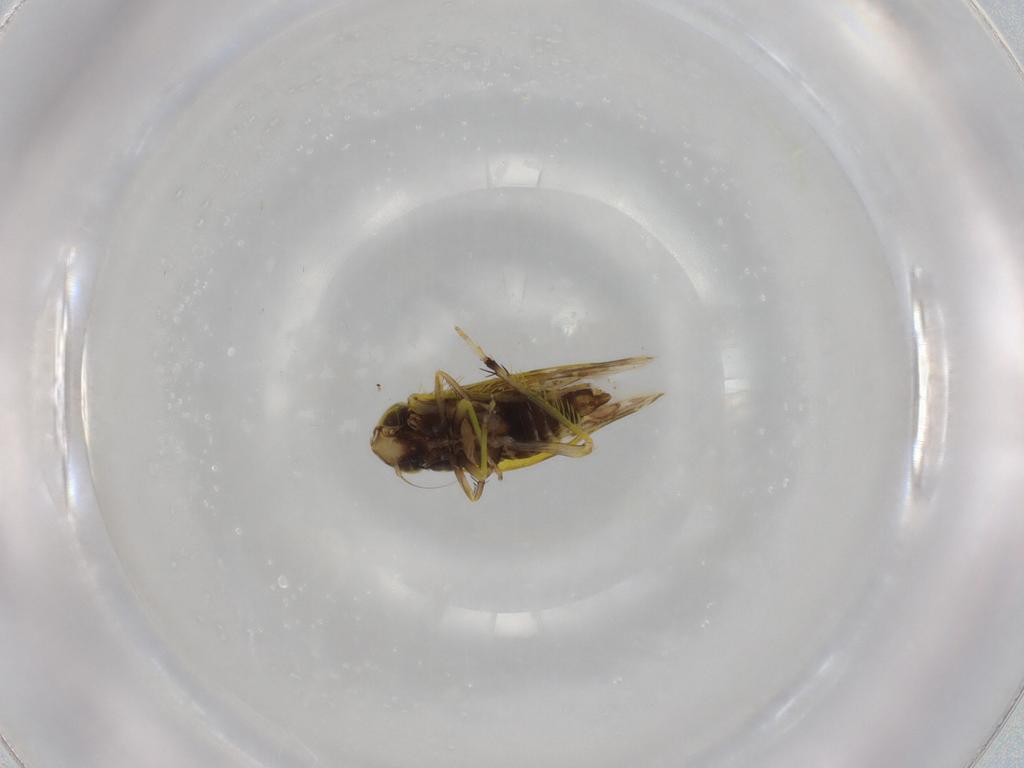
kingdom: Animalia
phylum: Arthropoda
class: Insecta
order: Hemiptera
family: Cicadellidae
